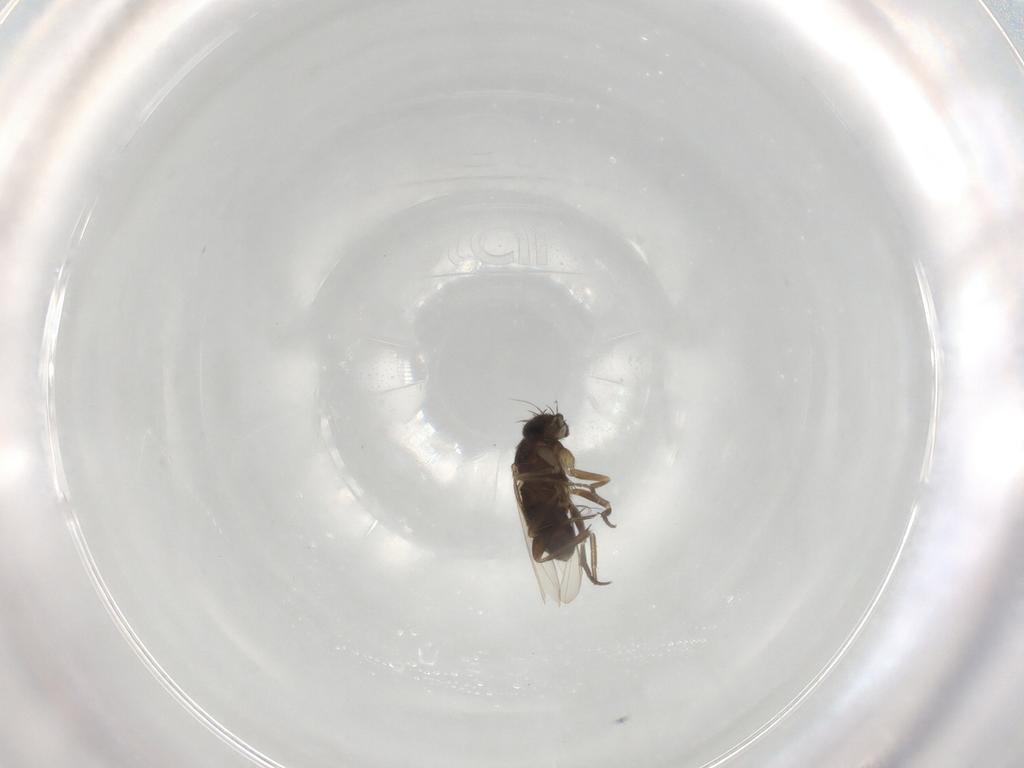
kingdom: Animalia
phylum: Arthropoda
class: Insecta
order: Diptera
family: Phoridae
